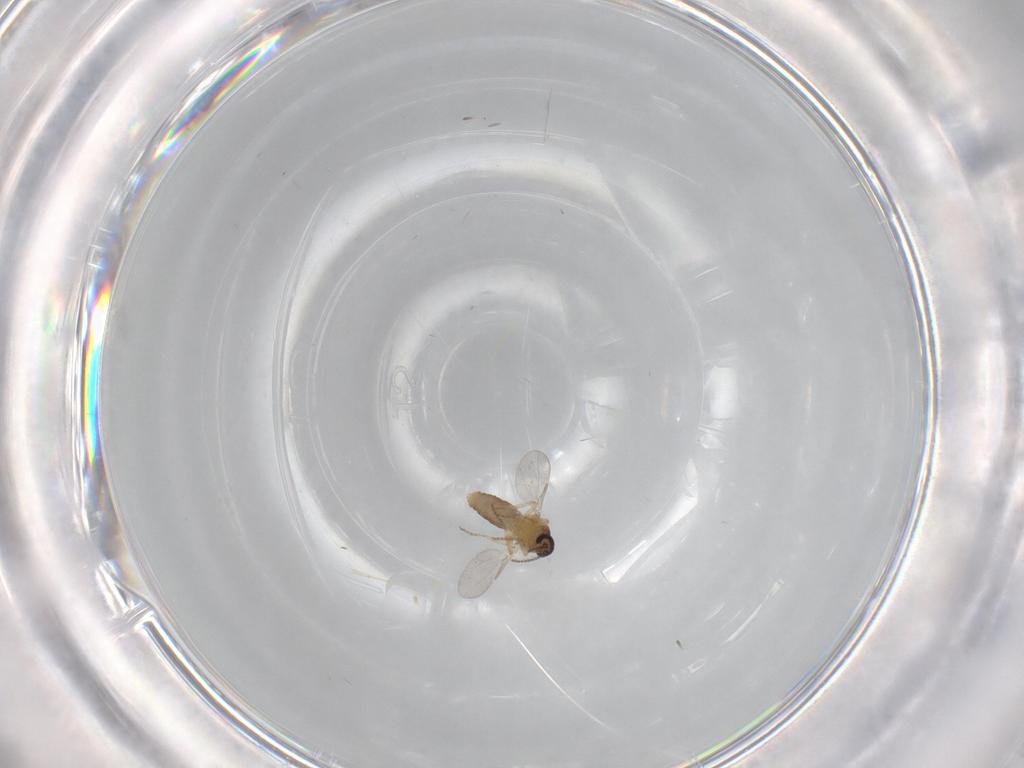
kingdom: Animalia
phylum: Arthropoda
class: Insecta
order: Diptera
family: Ceratopogonidae
